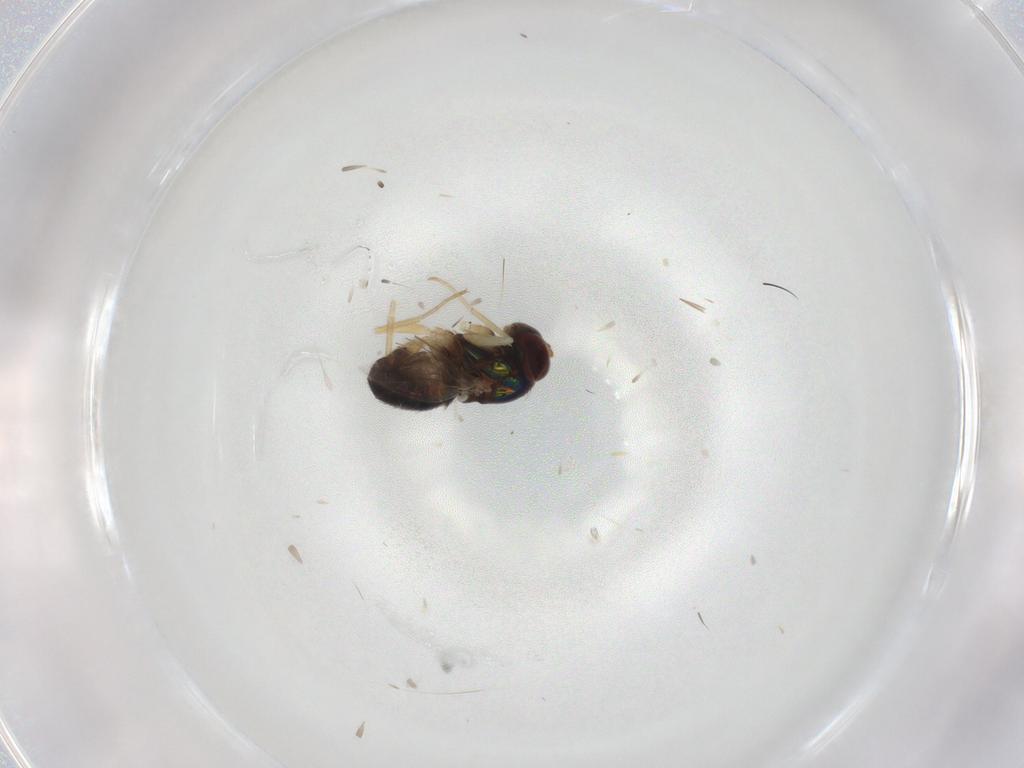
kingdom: Animalia
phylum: Arthropoda
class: Insecta
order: Diptera
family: Dolichopodidae
